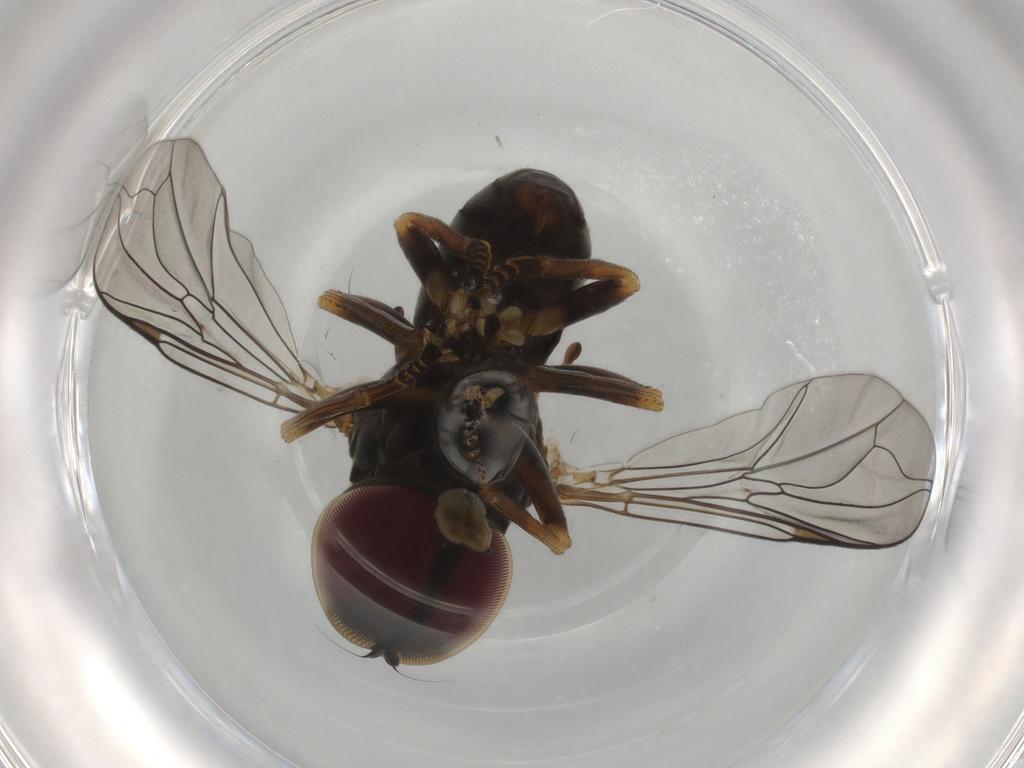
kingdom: Animalia
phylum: Arthropoda
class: Insecta
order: Diptera
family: Pipunculidae
